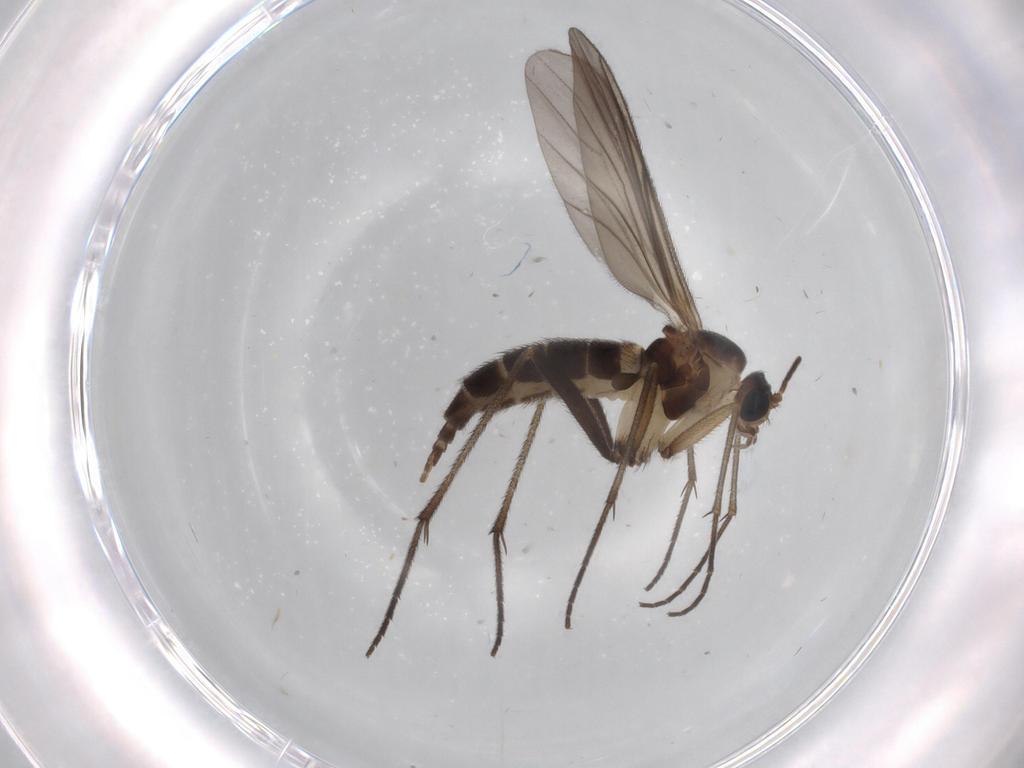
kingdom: Animalia
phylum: Arthropoda
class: Insecta
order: Diptera
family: Sciaridae
